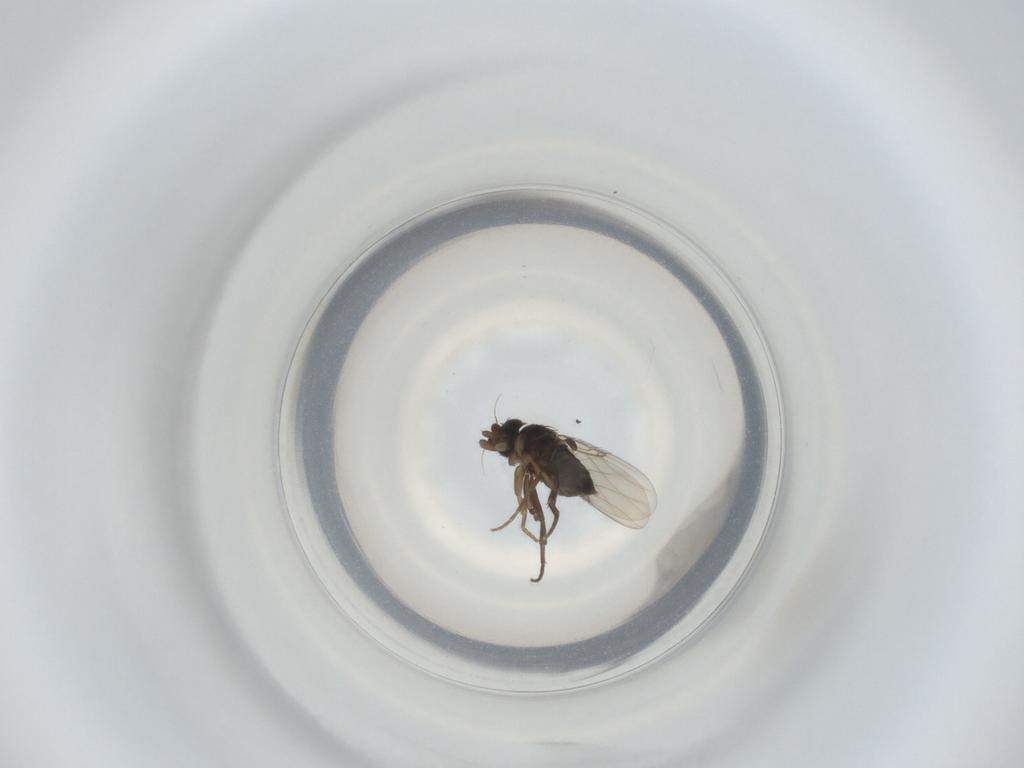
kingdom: Animalia
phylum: Arthropoda
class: Insecta
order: Diptera
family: Phoridae
